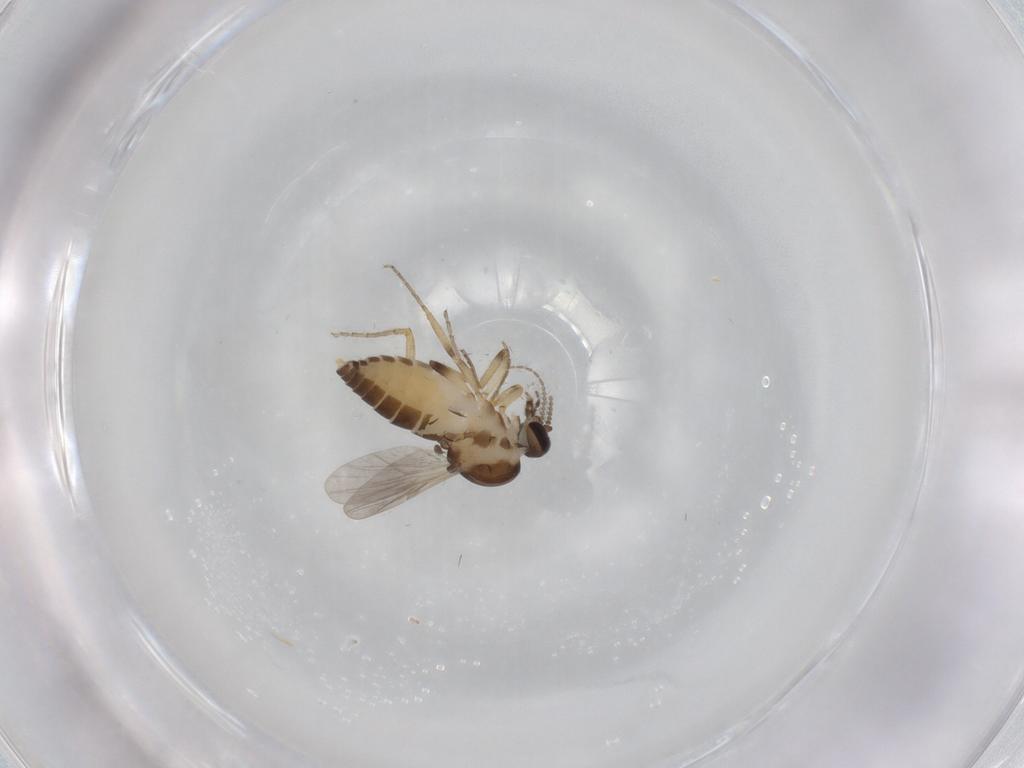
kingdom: Animalia
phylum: Arthropoda
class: Insecta
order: Diptera
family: Ceratopogonidae
